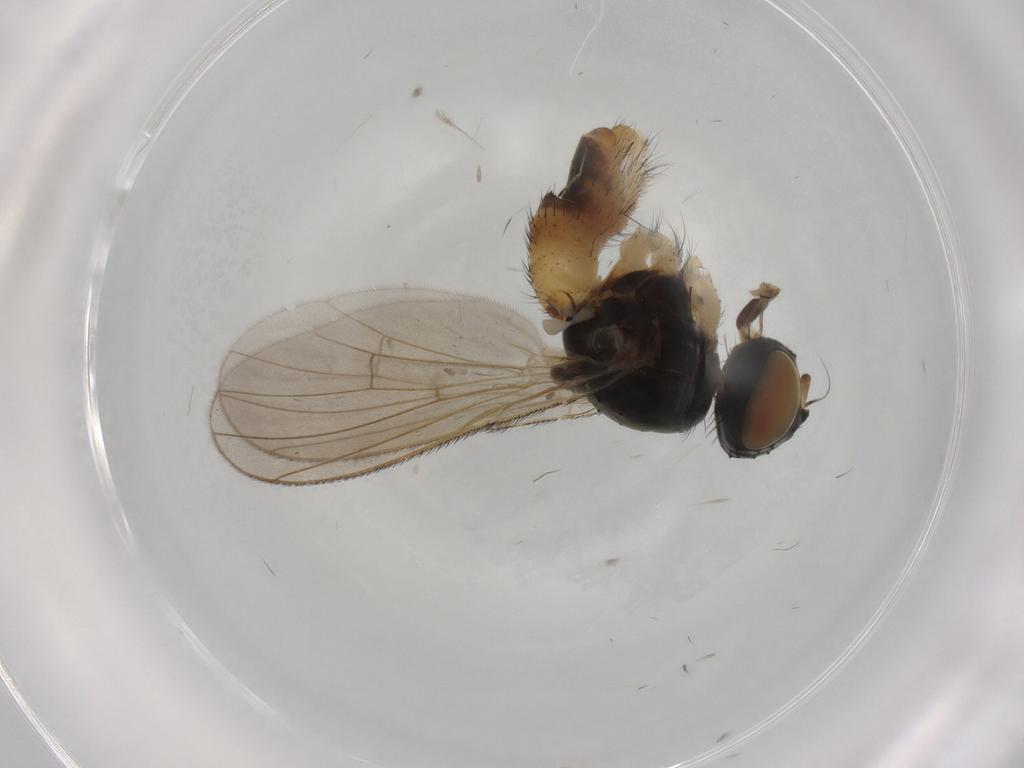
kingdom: Animalia
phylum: Arthropoda
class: Insecta
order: Diptera
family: Muscidae
